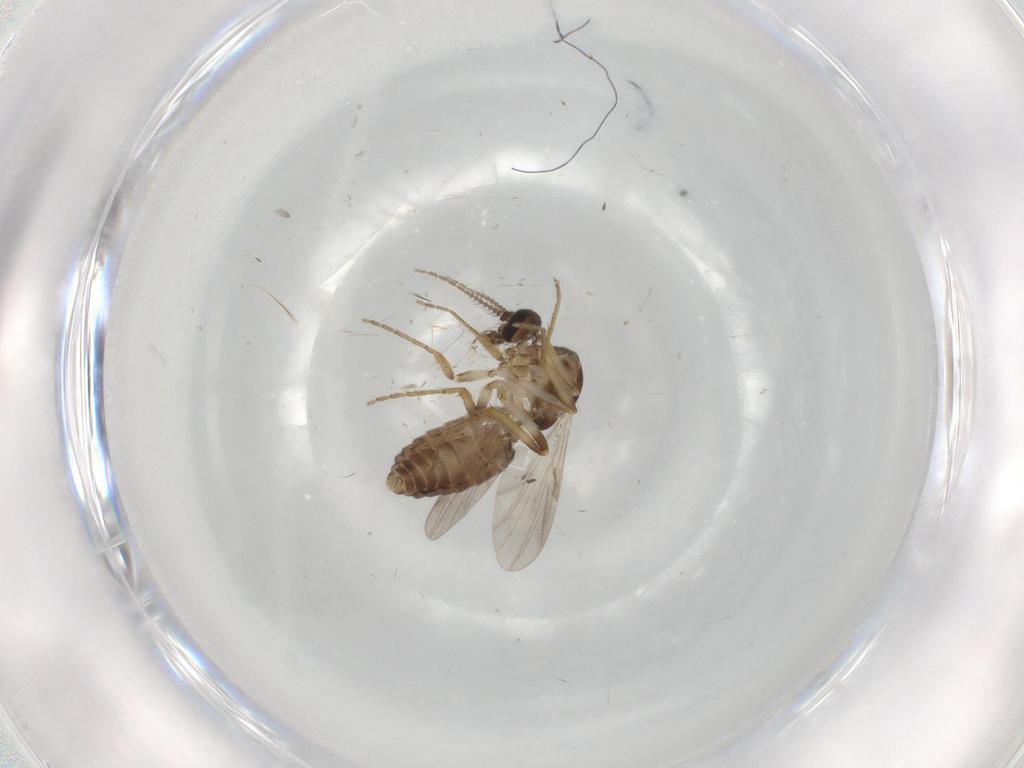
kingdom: Animalia
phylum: Arthropoda
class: Insecta
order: Diptera
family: Ceratopogonidae
